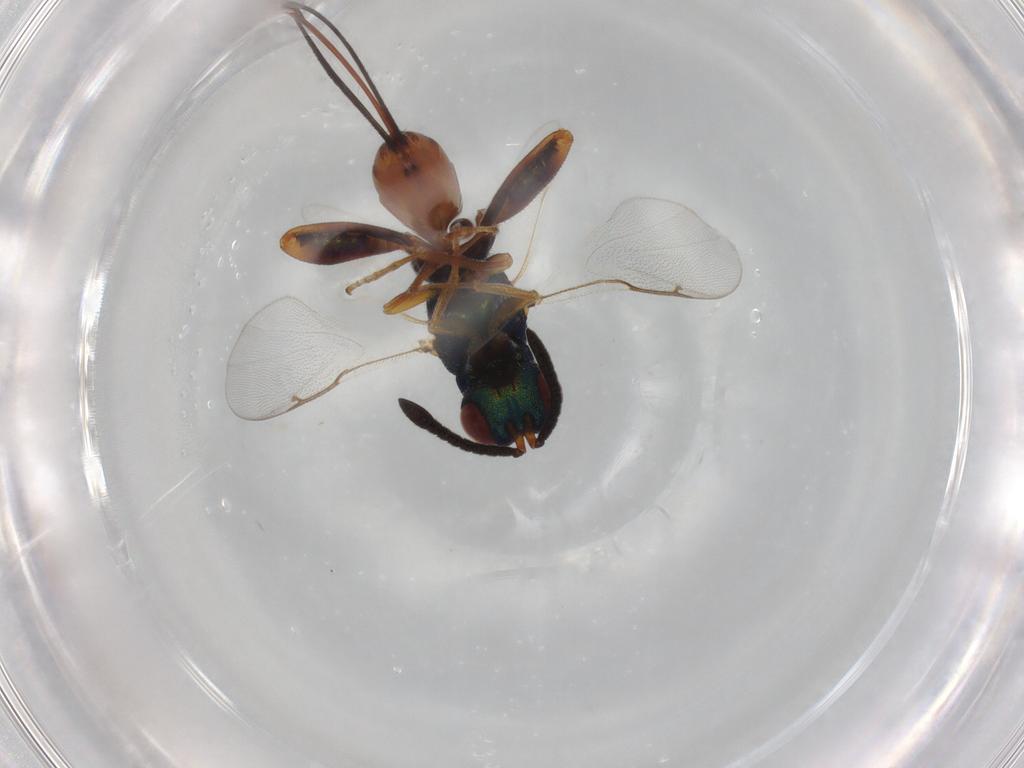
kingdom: Animalia
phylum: Arthropoda
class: Insecta
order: Hymenoptera
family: Torymidae
